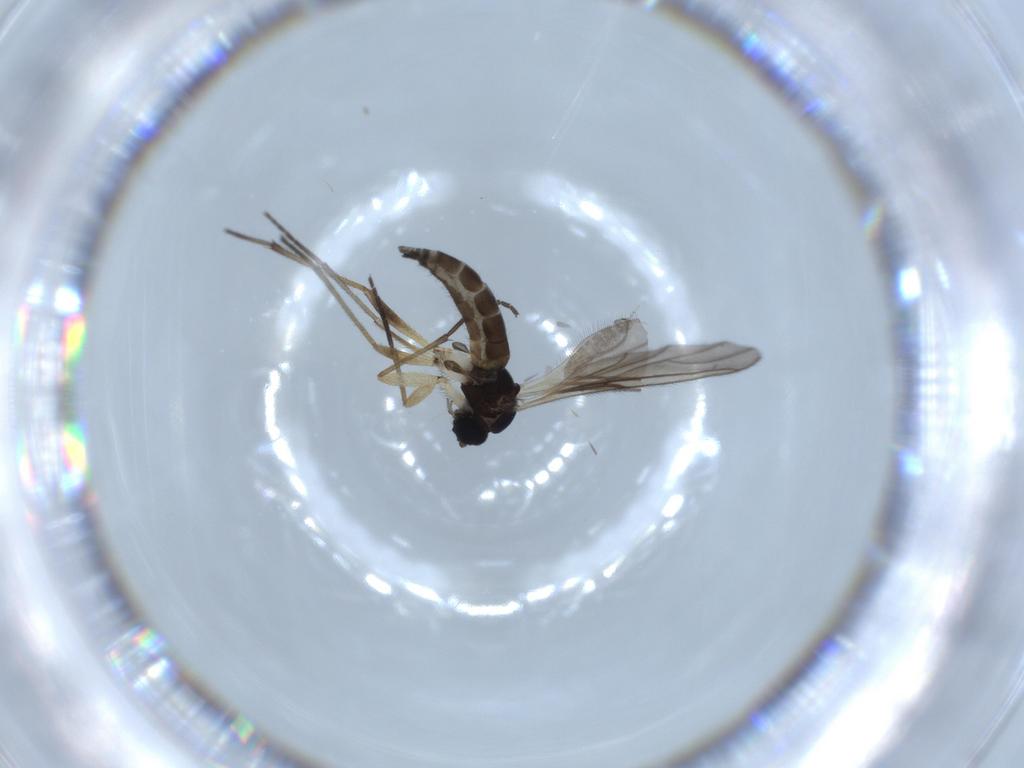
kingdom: Animalia
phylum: Arthropoda
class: Insecta
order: Diptera
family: Sciaridae
